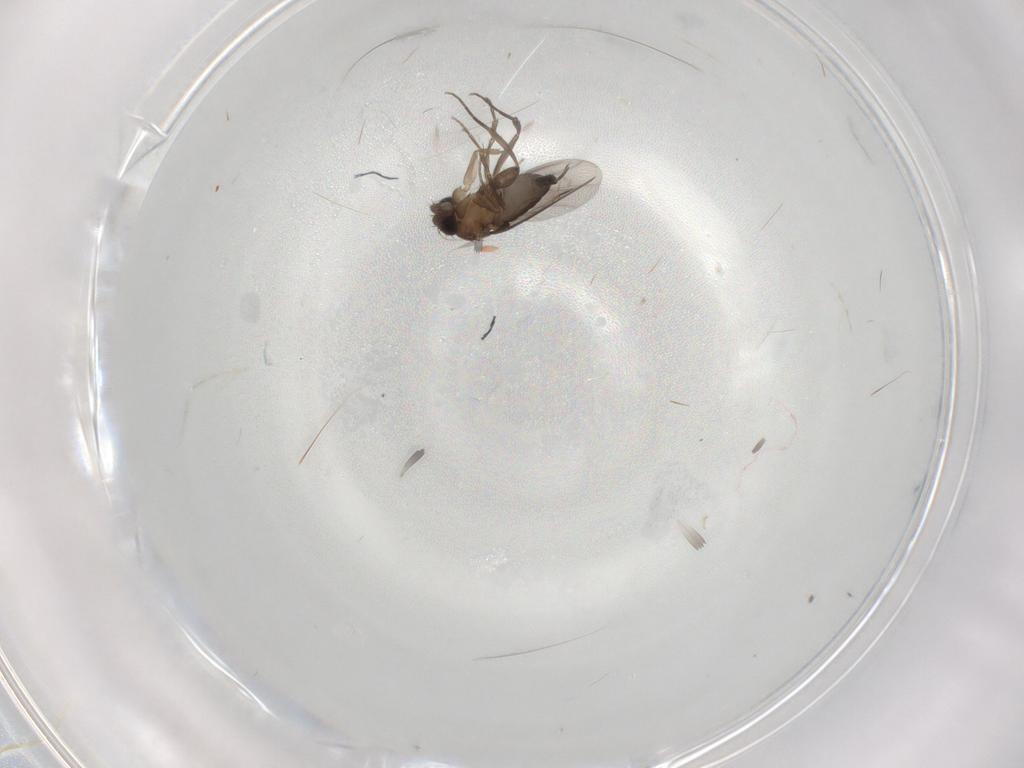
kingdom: Animalia
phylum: Arthropoda
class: Insecta
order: Diptera
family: Phoridae
